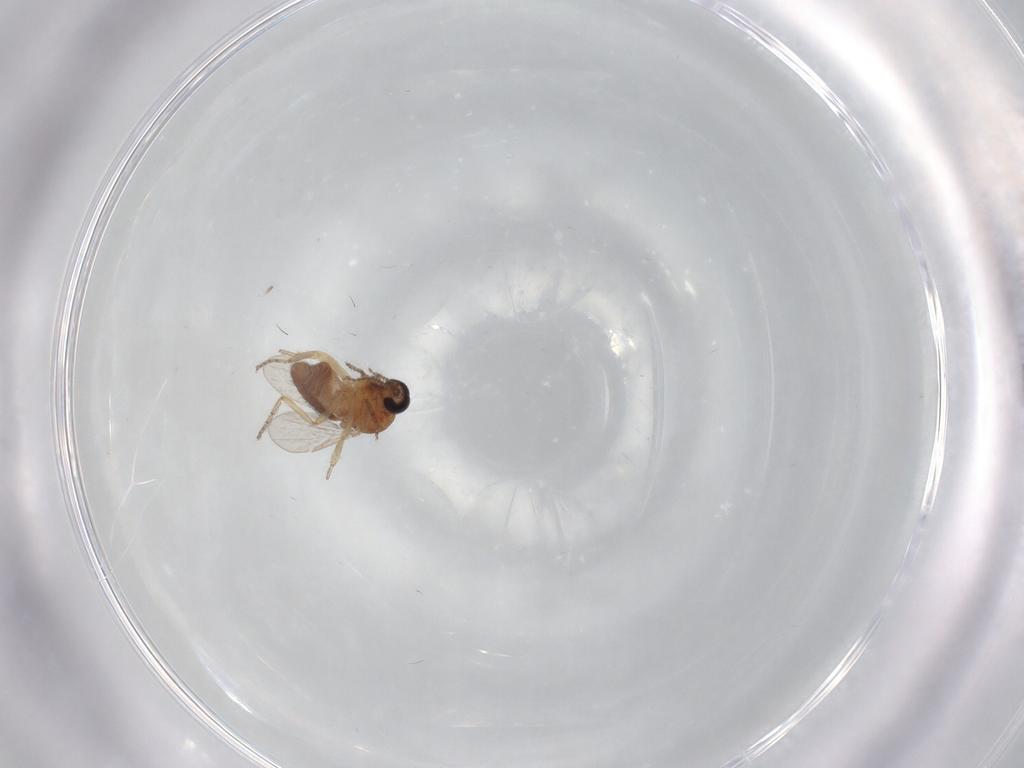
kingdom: Animalia
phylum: Arthropoda
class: Insecta
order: Diptera
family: Ceratopogonidae
